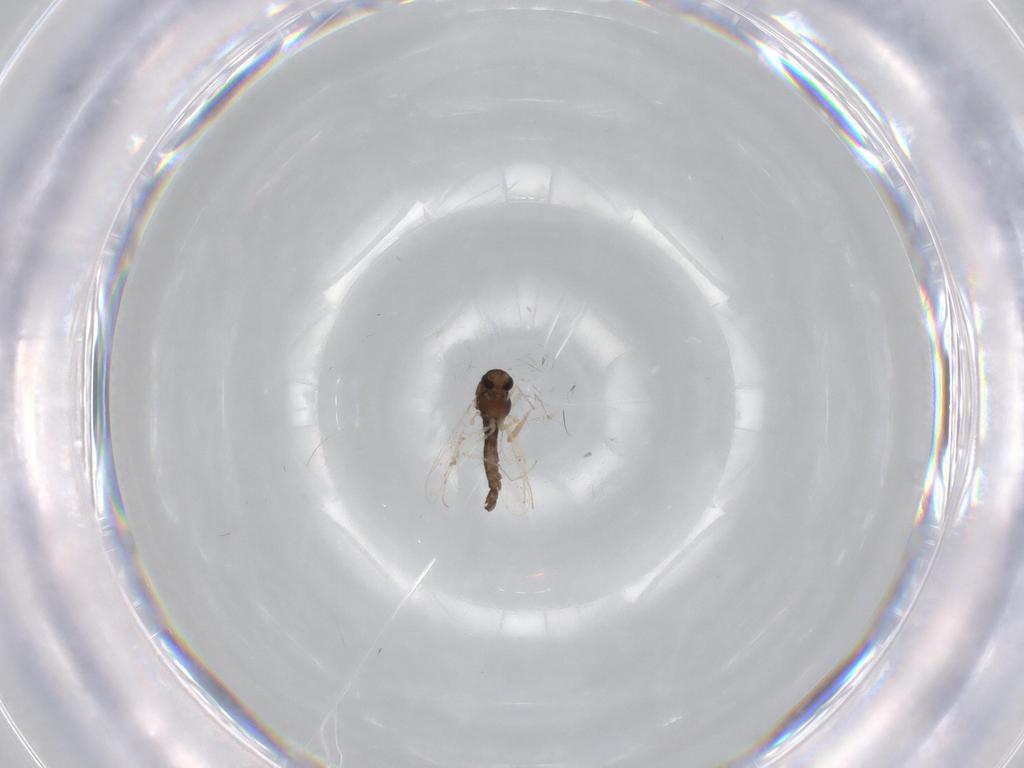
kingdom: Animalia
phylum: Arthropoda
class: Insecta
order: Diptera
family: Chironomidae
